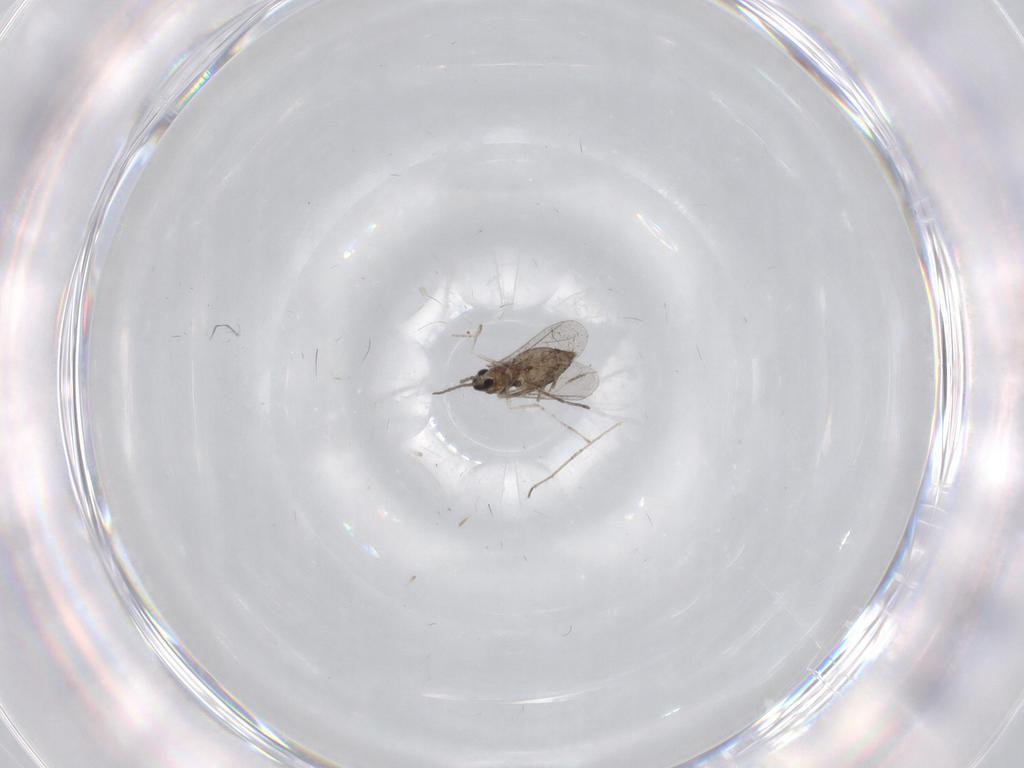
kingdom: Animalia
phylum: Arthropoda
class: Insecta
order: Diptera
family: Cecidomyiidae
